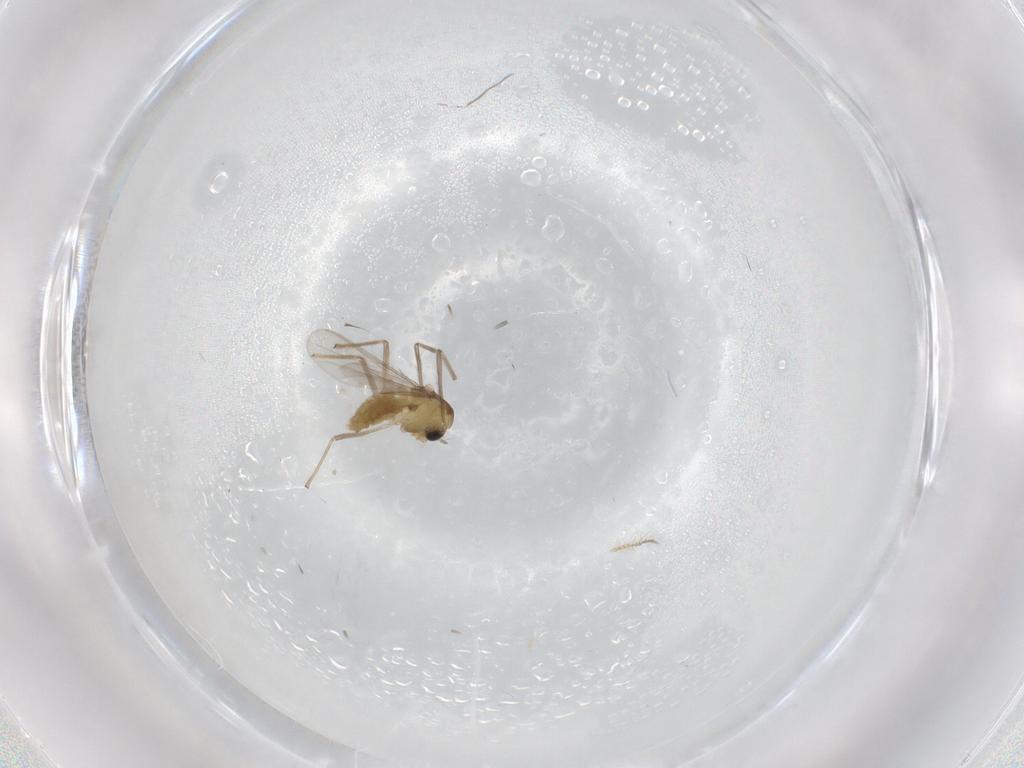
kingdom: Animalia
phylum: Arthropoda
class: Insecta
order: Diptera
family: Chironomidae
